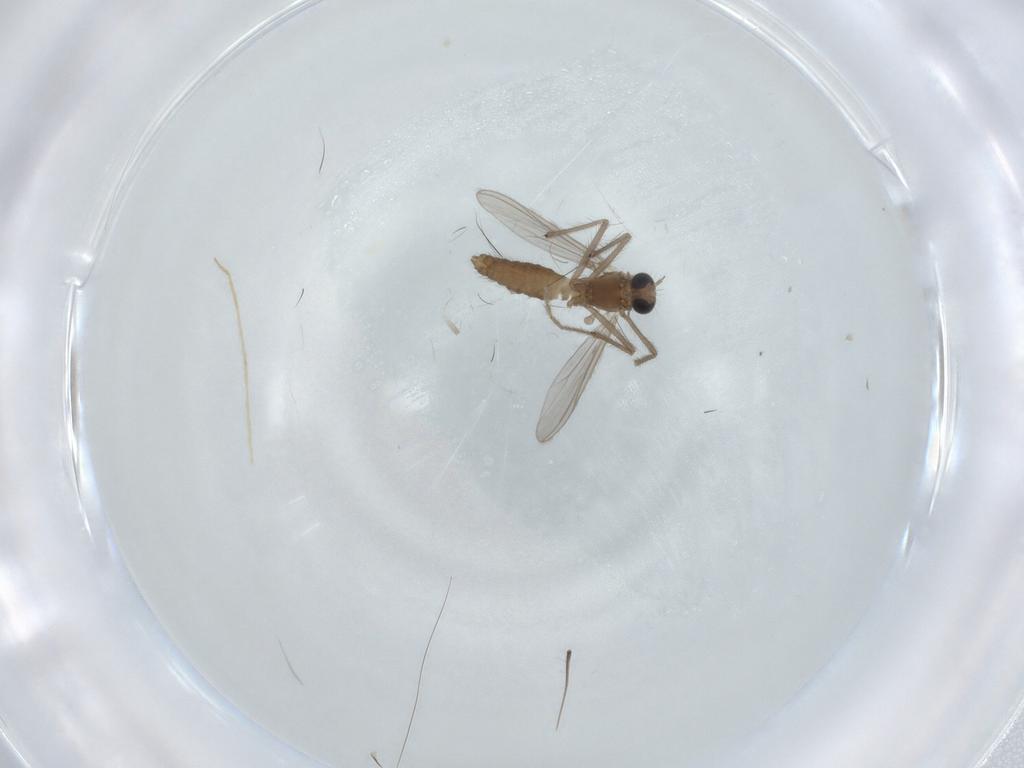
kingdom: Animalia
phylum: Arthropoda
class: Insecta
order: Diptera
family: Chironomidae
